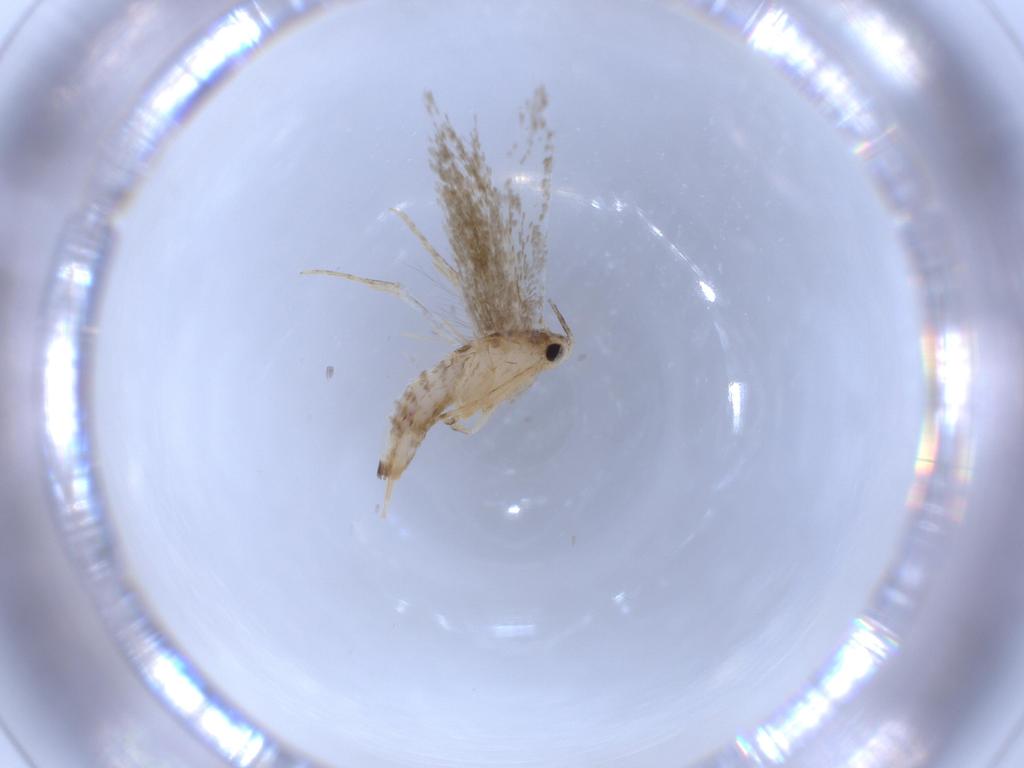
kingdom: Animalia
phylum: Arthropoda
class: Insecta
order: Lepidoptera
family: Tineidae
